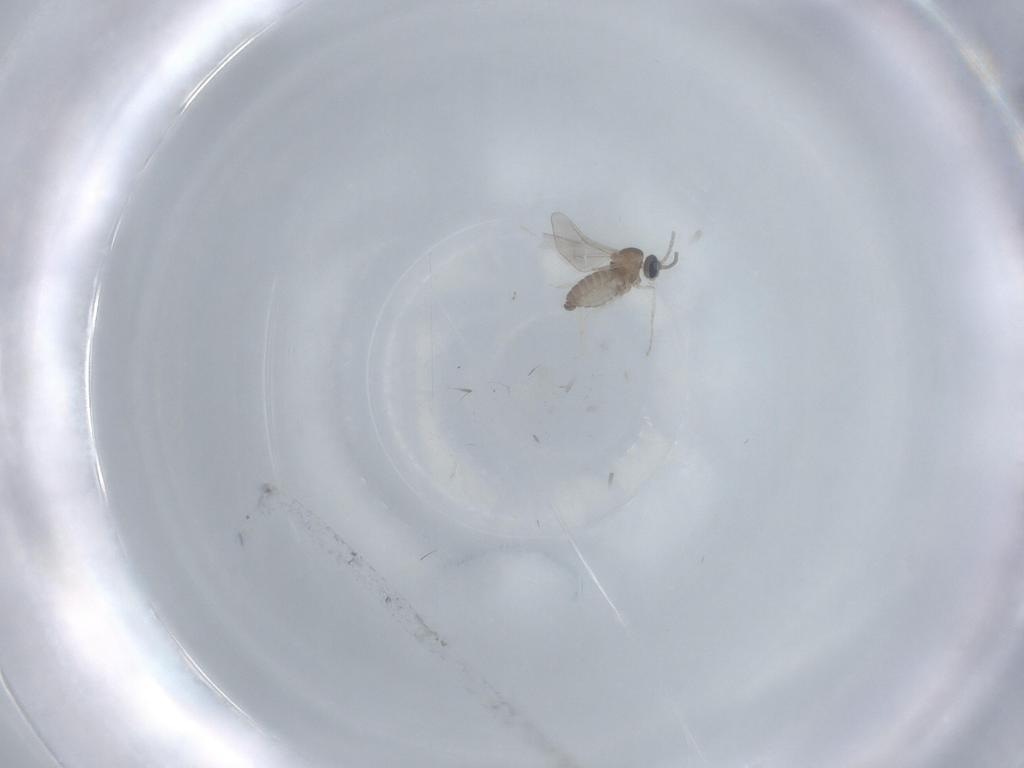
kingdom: Animalia
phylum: Arthropoda
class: Insecta
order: Diptera
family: Cecidomyiidae
